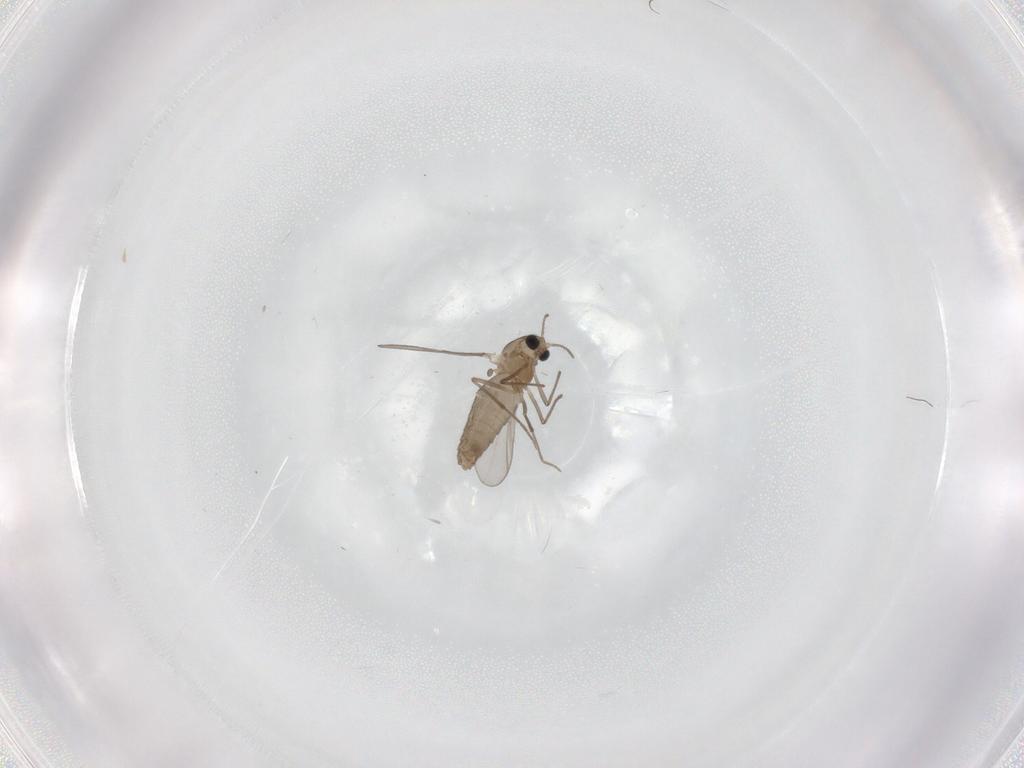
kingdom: Animalia
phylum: Arthropoda
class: Insecta
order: Diptera
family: Chironomidae
